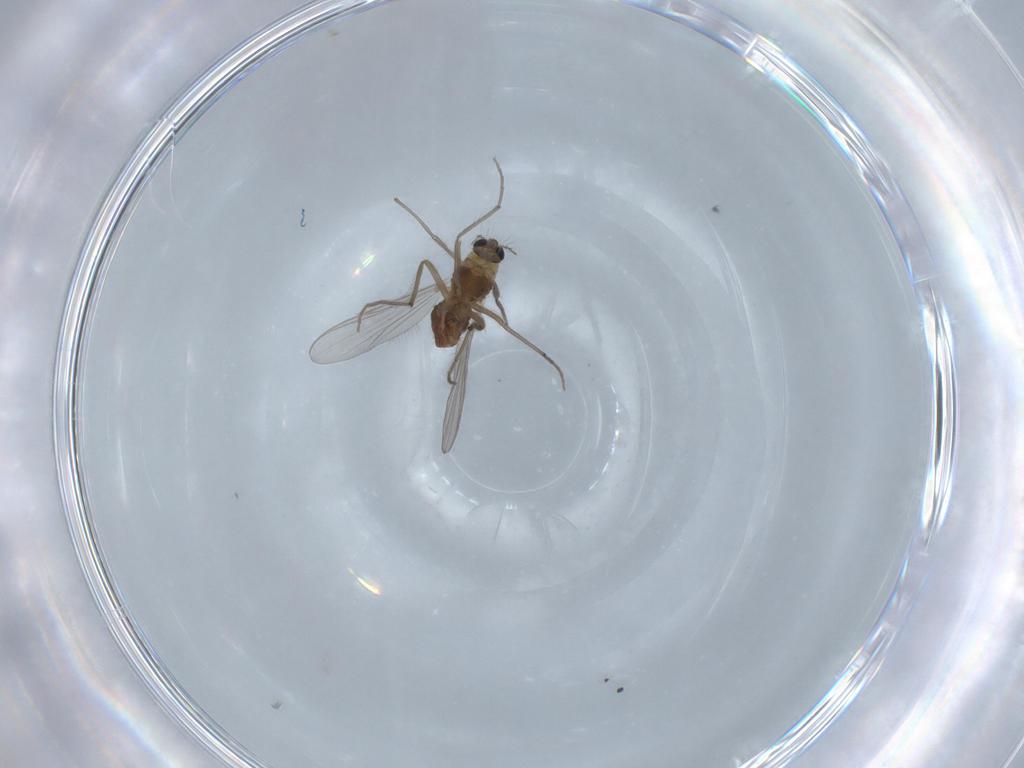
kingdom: Animalia
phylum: Arthropoda
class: Insecta
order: Diptera
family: Chironomidae
